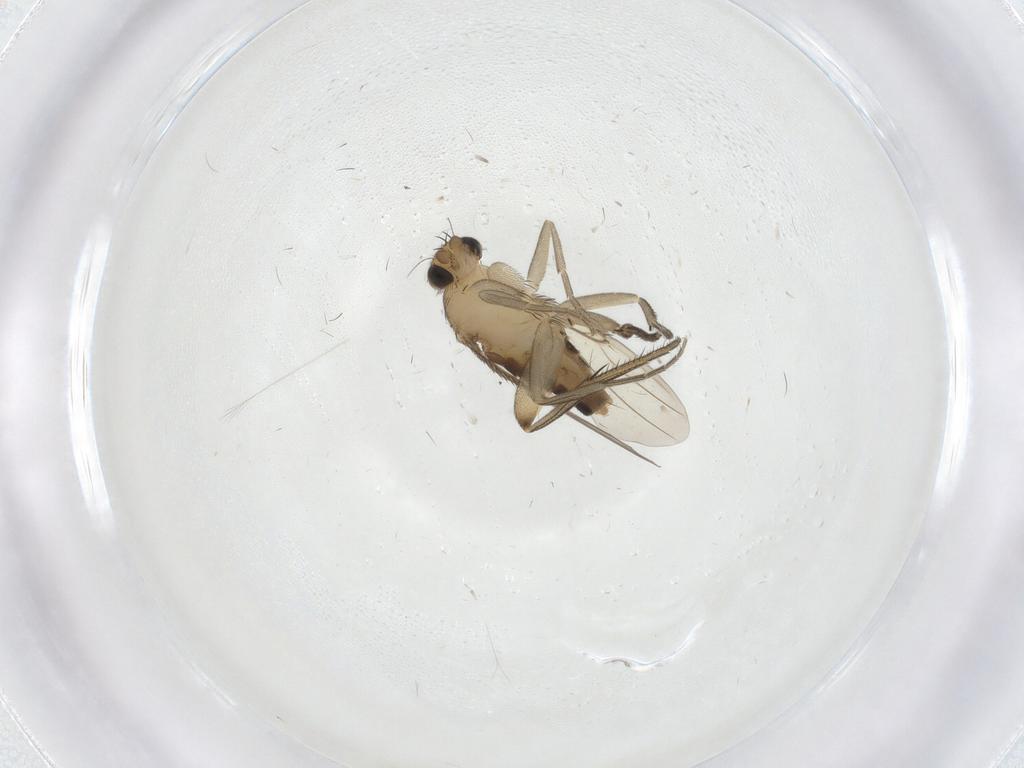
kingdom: Animalia
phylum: Arthropoda
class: Insecta
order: Diptera
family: Phoridae
